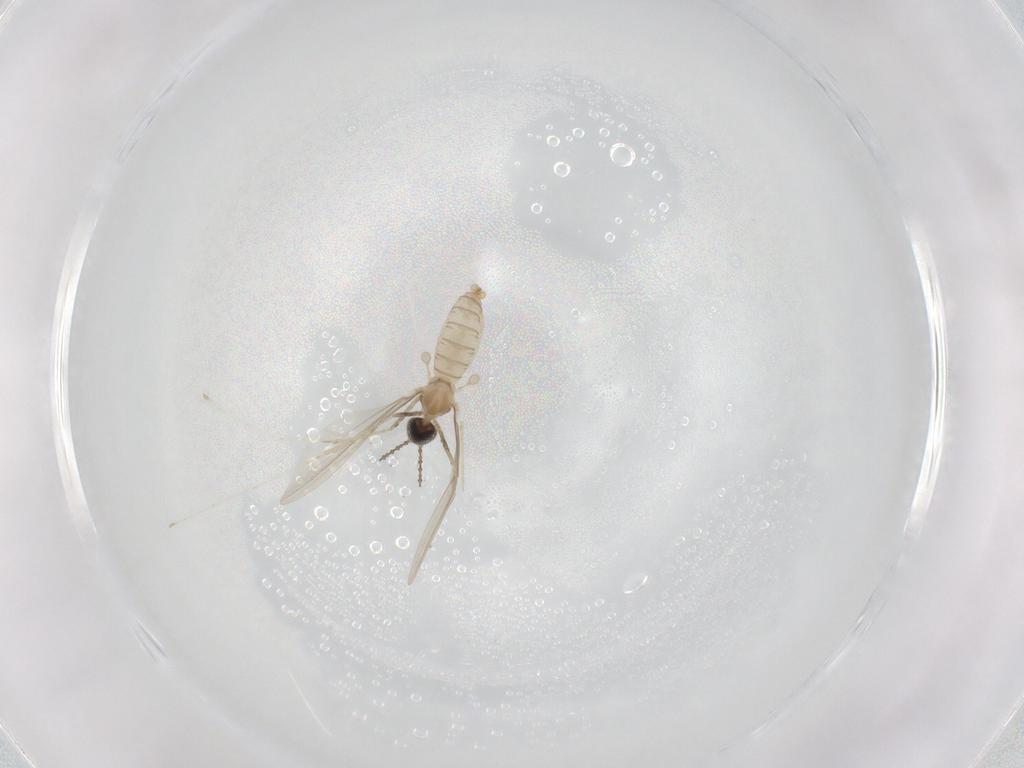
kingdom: Animalia
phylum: Arthropoda
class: Insecta
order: Diptera
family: Cecidomyiidae
